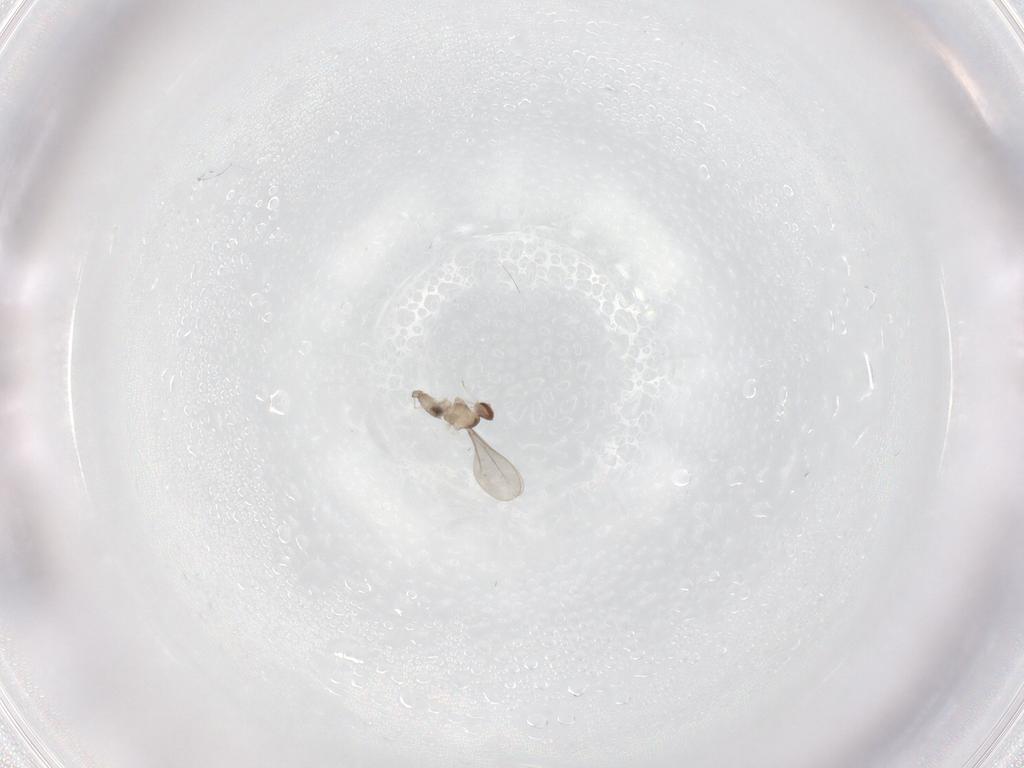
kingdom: Animalia
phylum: Arthropoda
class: Insecta
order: Diptera
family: Cecidomyiidae
